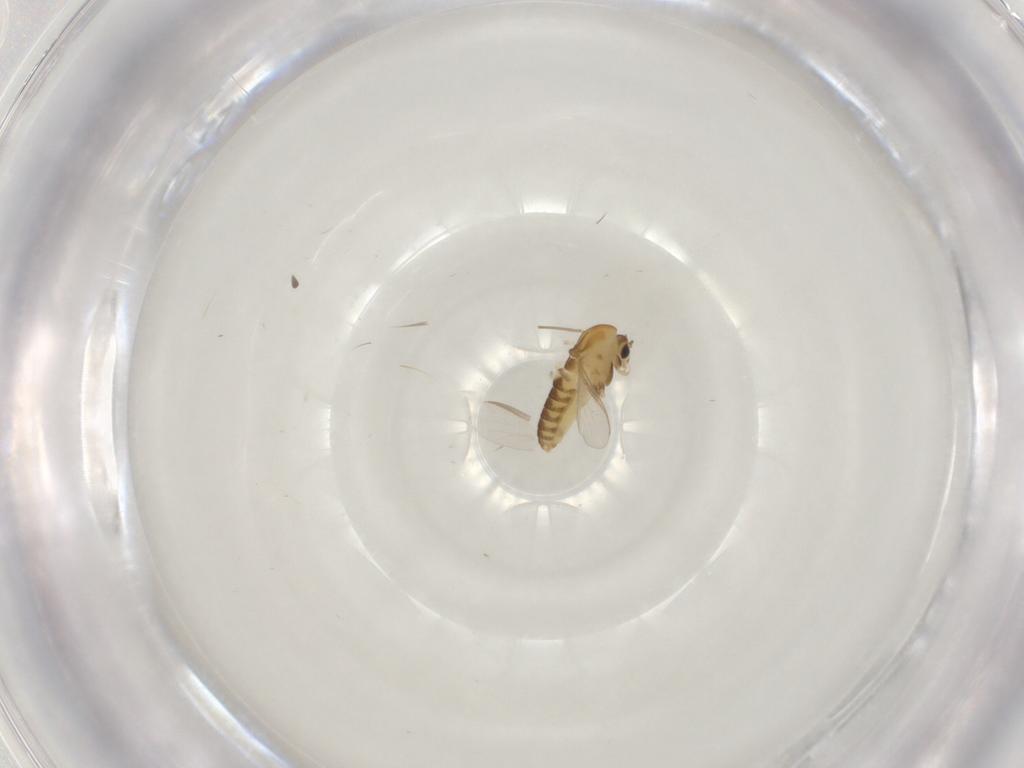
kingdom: Animalia
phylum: Arthropoda
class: Insecta
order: Diptera
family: Chironomidae
